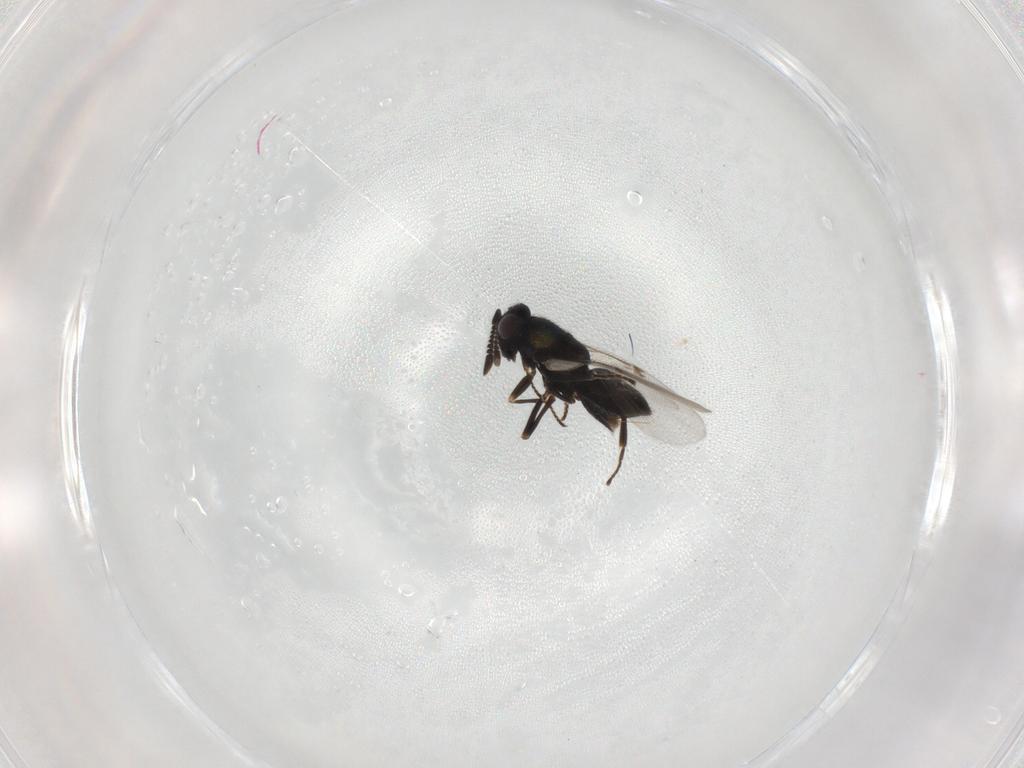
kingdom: Animalia
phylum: Arthropoda
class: Insecta
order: Hymenoptera
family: Encyrtidae
